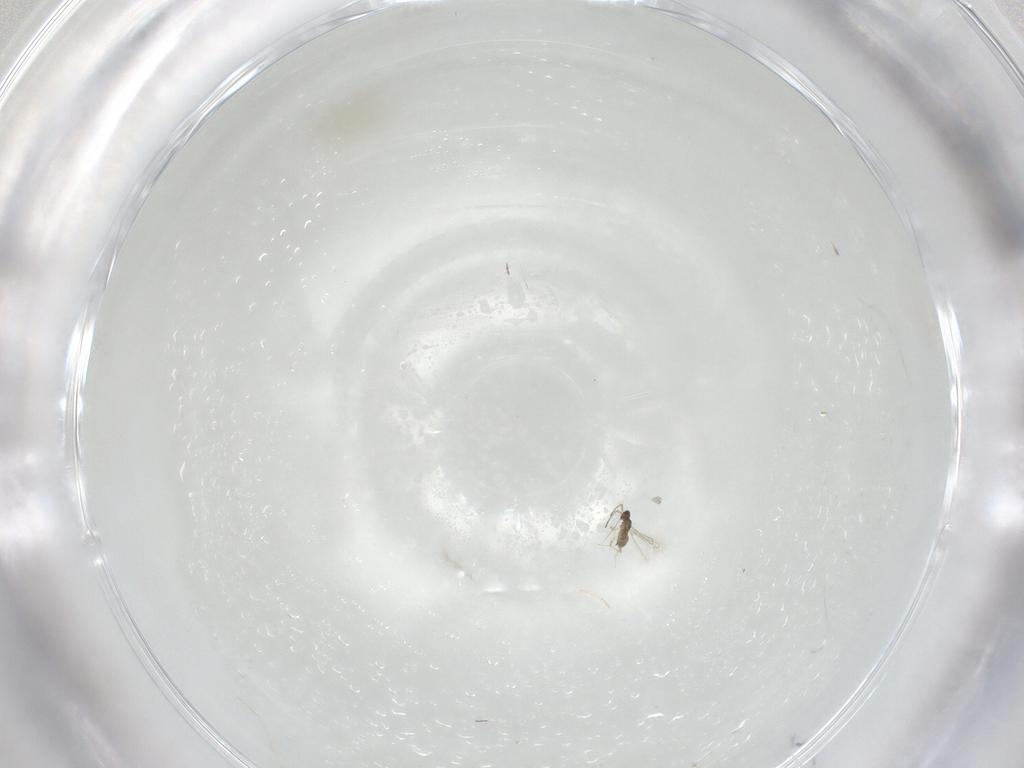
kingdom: Animalia
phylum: Arthropoda
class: Insecta
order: Hymenoptera
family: Mymaridae
